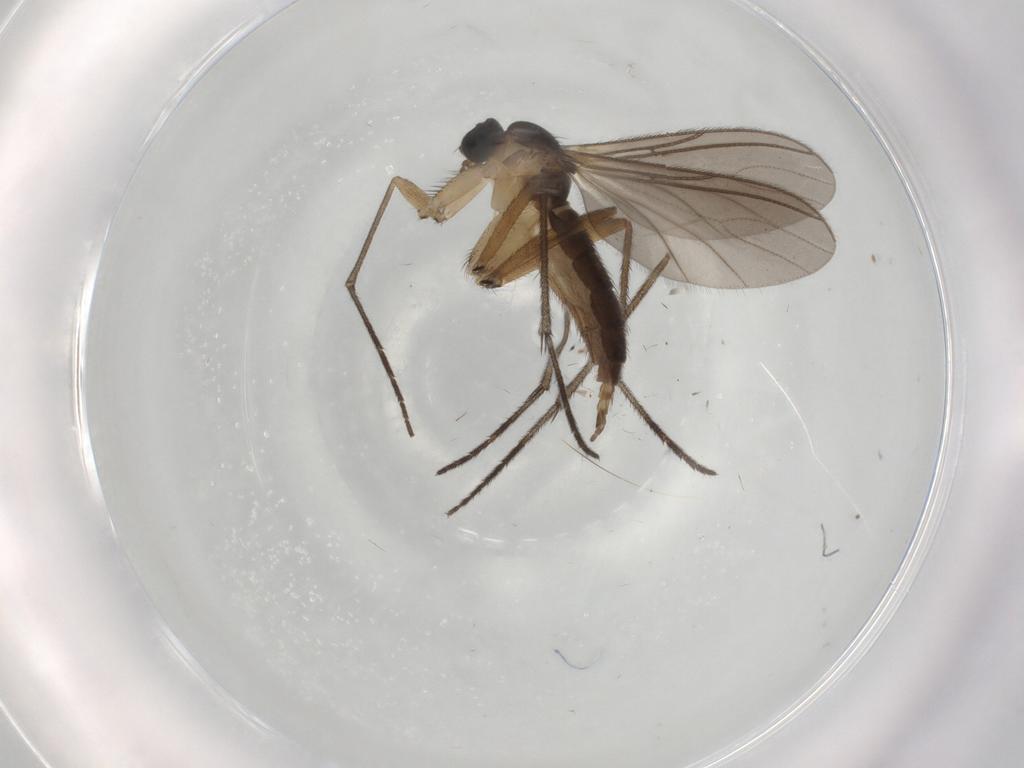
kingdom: Animalia
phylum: Arthropoda
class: Insecta
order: Diptera
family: Sciaridae
